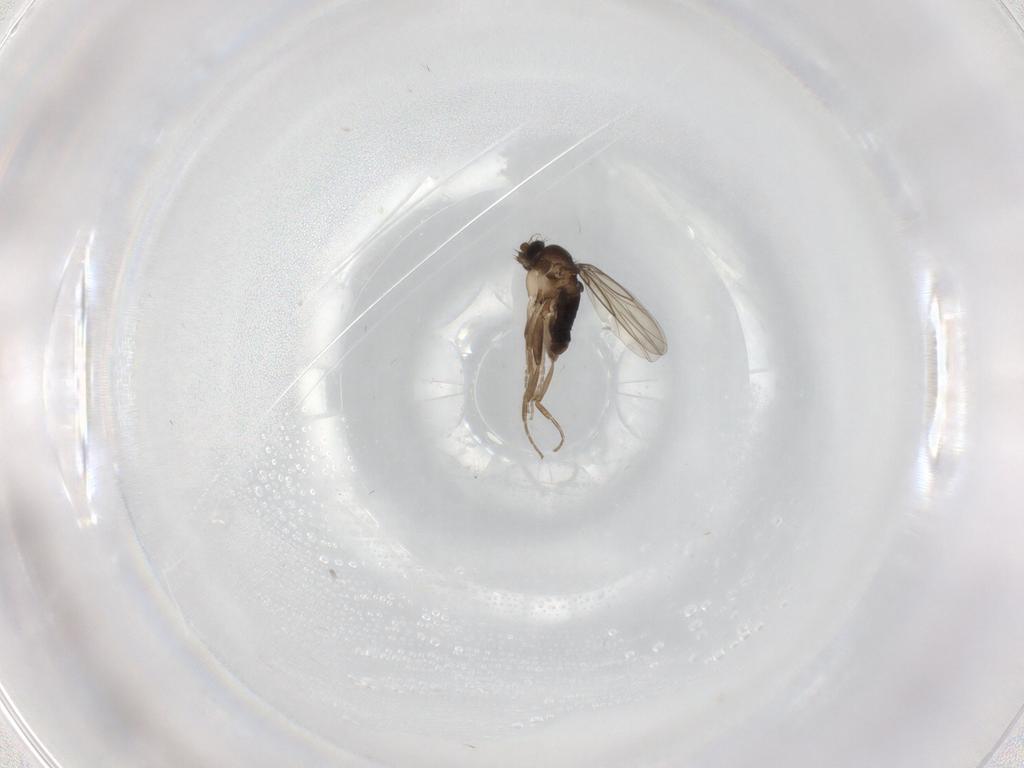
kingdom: Animalia
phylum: Arthropoda
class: Insecta
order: Diptera
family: Phoridae
